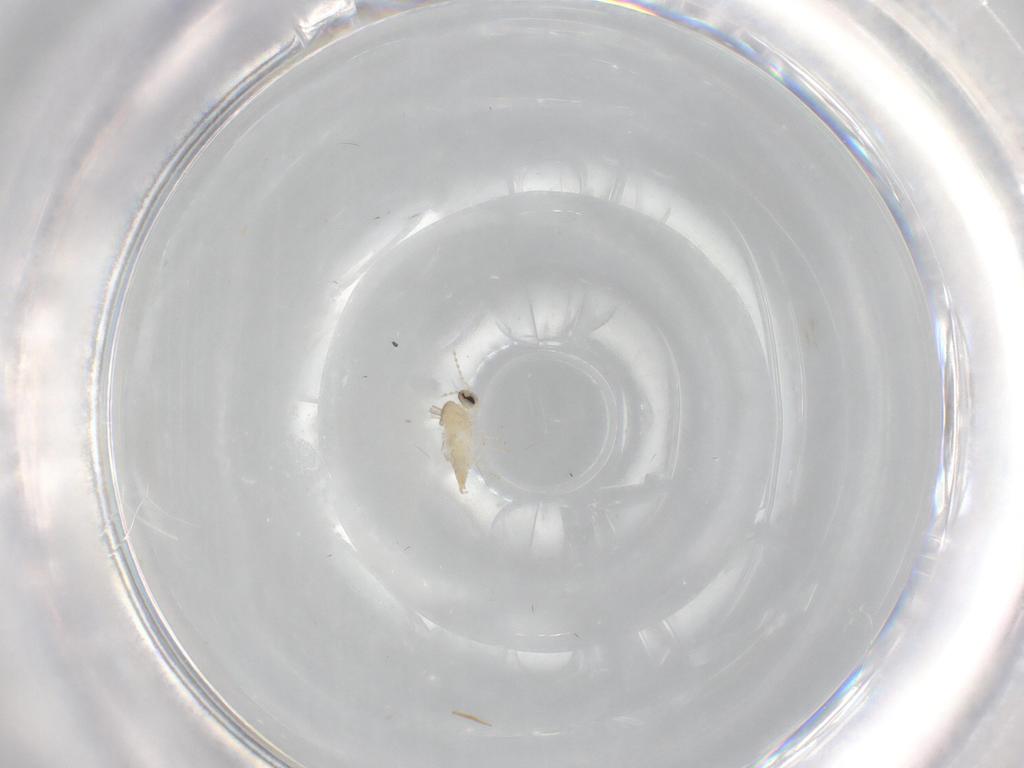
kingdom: Animalia
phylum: Arthropoda
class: Insecta
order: Diptera
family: Cecidomyiidae
